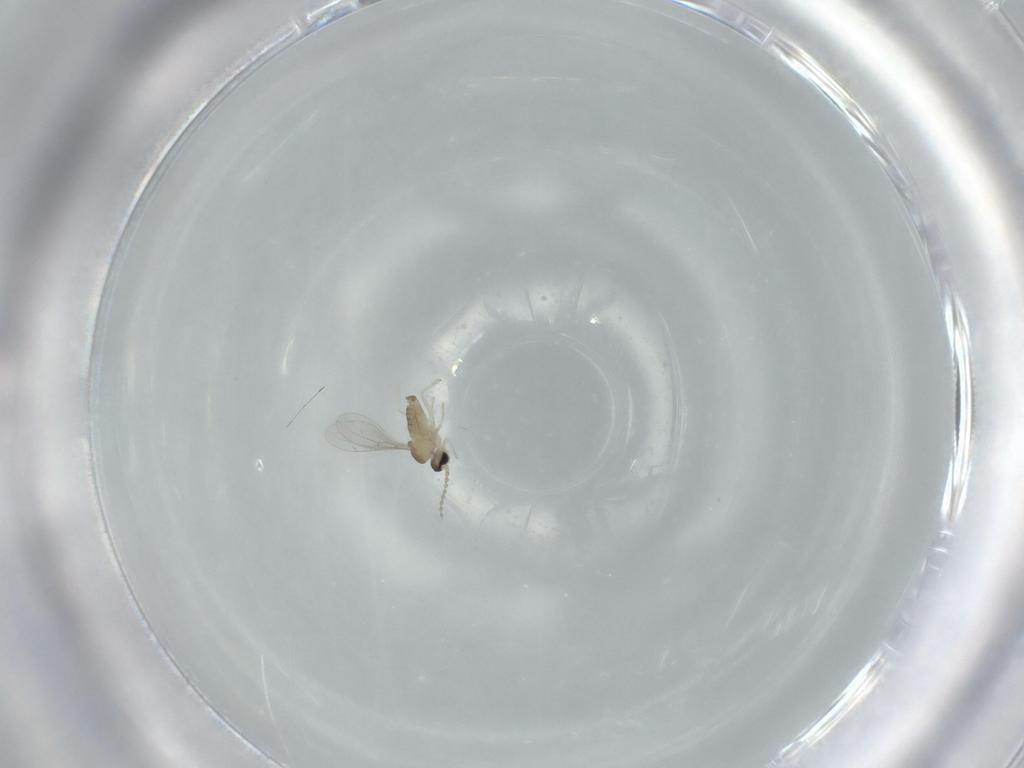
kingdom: Animalia
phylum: Arthropoda
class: Insecta
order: Diptera
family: Cecidomyiidae
